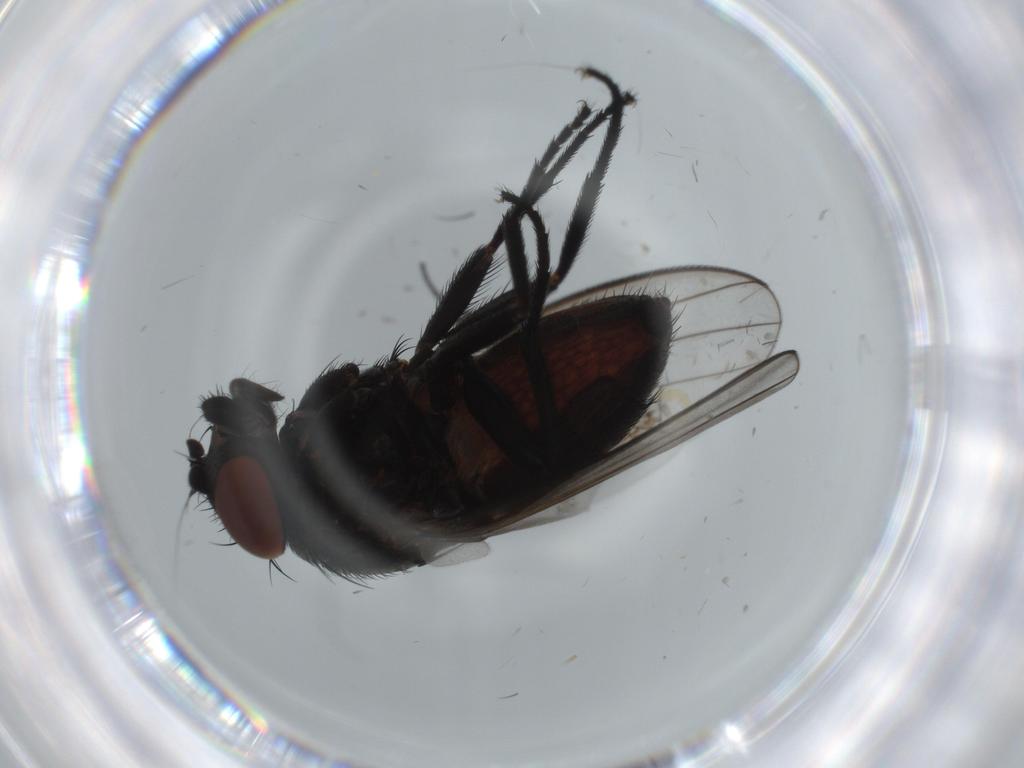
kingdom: Animalia
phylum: Arthropoda
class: Insecta
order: Diptera
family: Milichiidae
